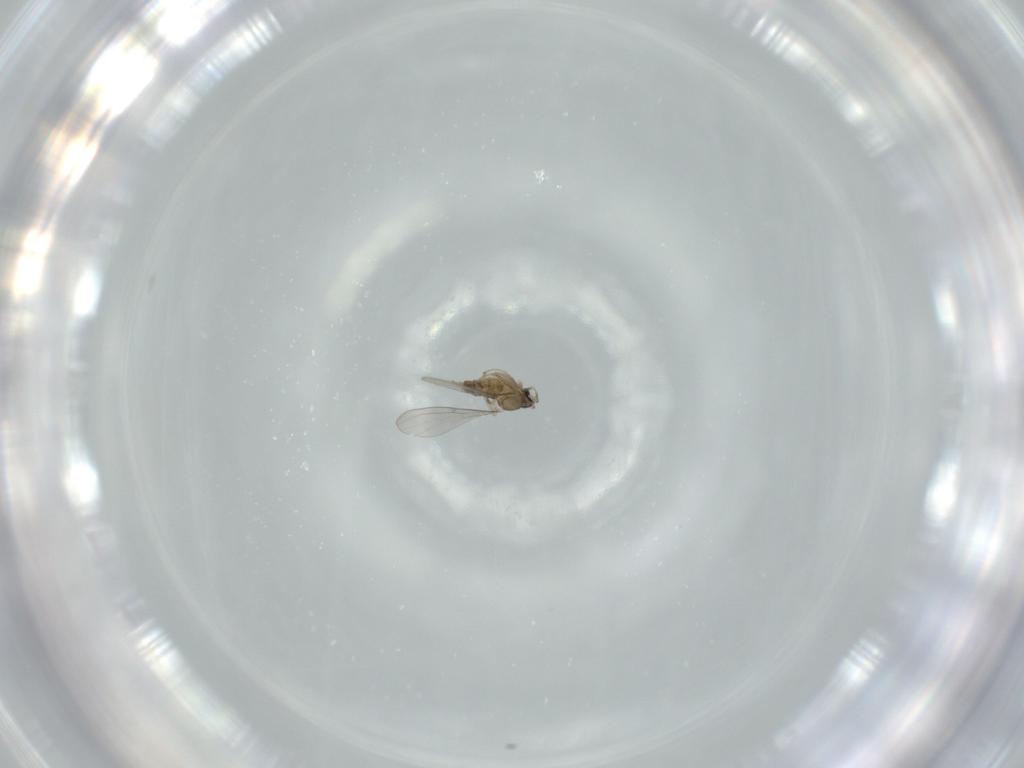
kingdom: Animalia
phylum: Arthropoda
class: Insecta
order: Diptera
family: Cecidomyiidae
